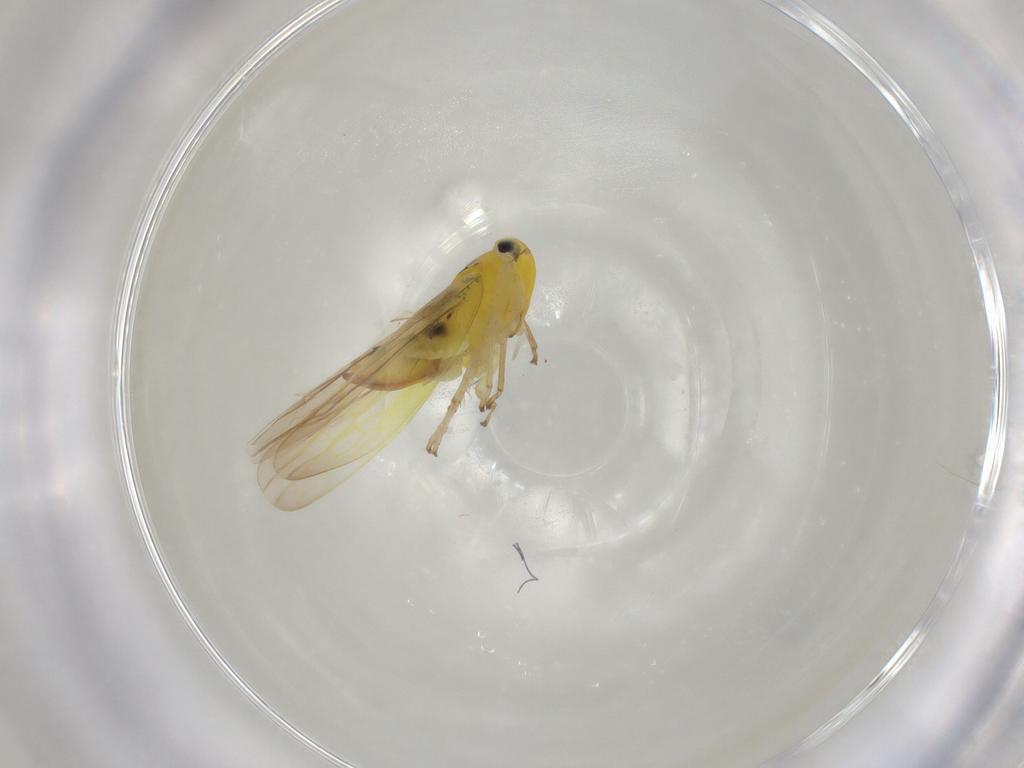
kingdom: Animalia
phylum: Arthropoda
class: Insecta
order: Hemiptera
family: Cicadellidae
